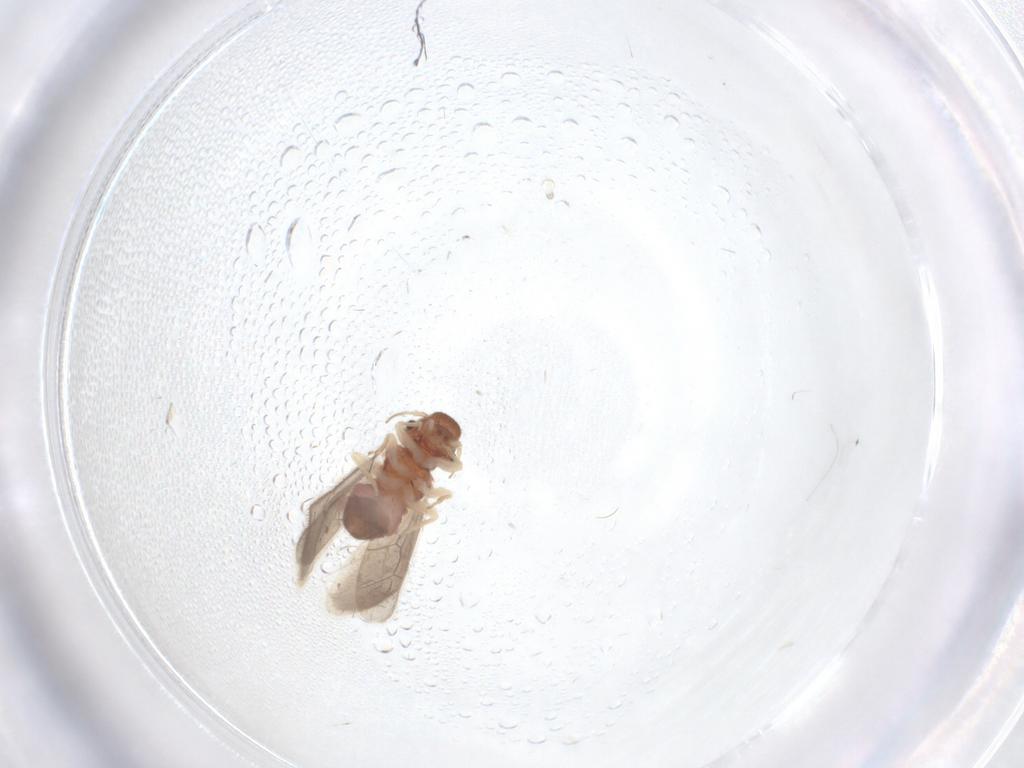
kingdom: Animalia
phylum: Arthropoda
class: Insecta
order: Psocodea
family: Archipsocidae
